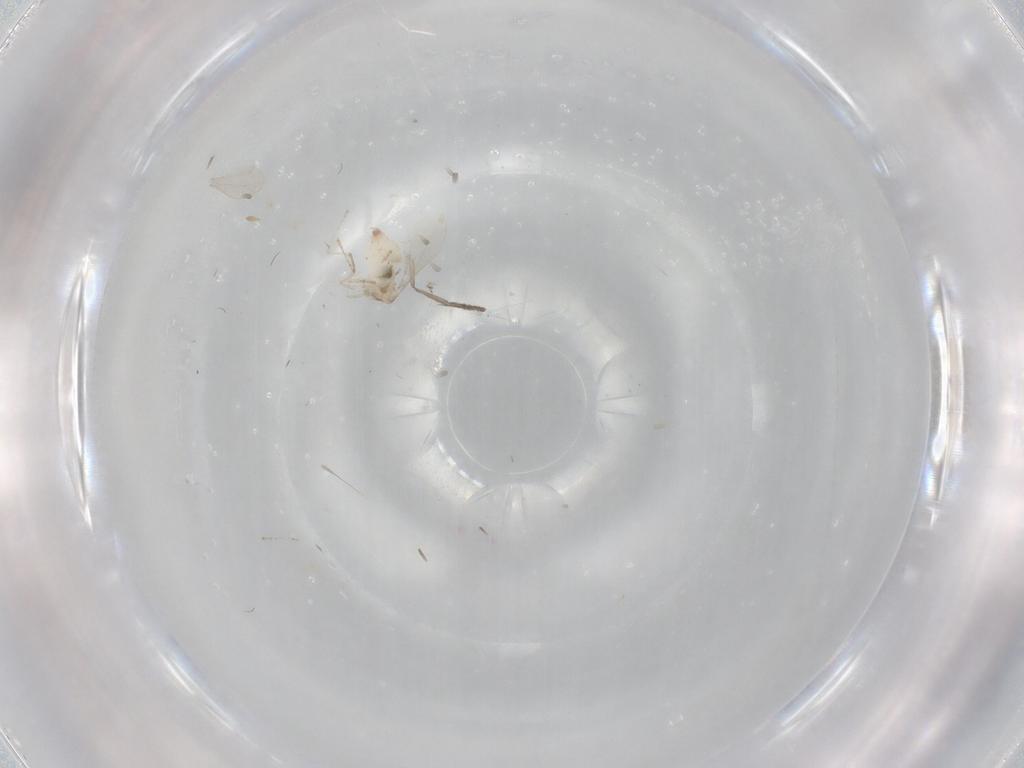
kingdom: Animalia
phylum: Arthropoda
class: Insecta
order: Diptera
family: Cecidomyiidae
